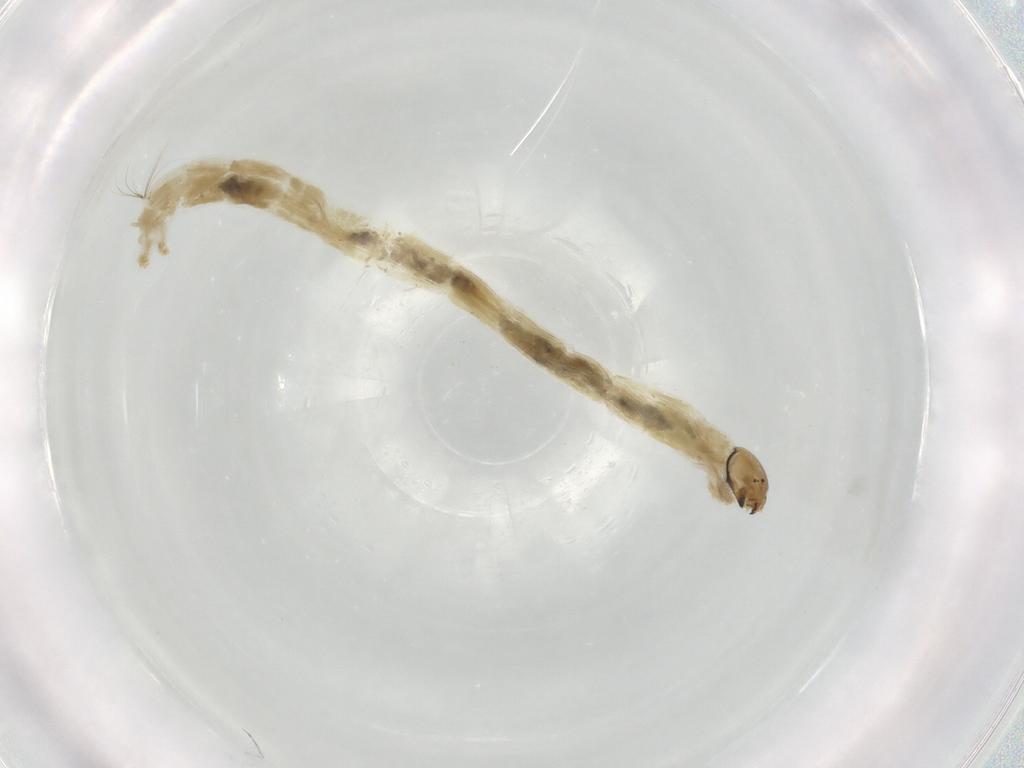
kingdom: Animalia
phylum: Arthropoda
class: Insecta
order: Diptera
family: Chironomidae
